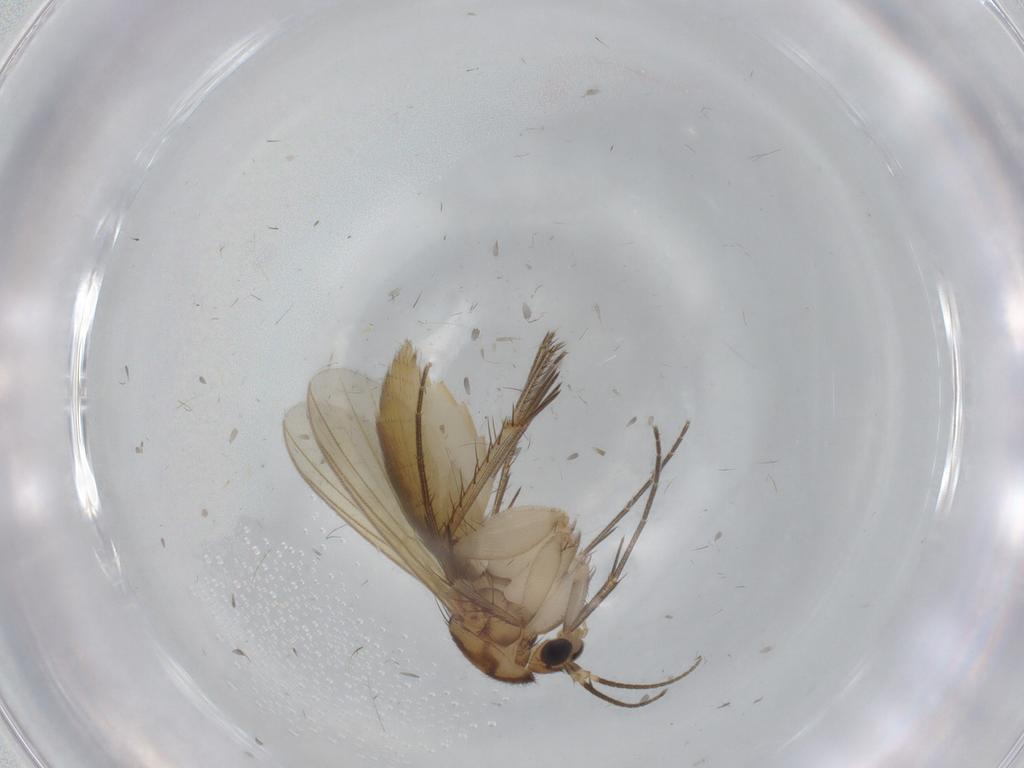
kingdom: Animalia
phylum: Arthropoda
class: Insecta
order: Diptera
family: Mycetophilidae
